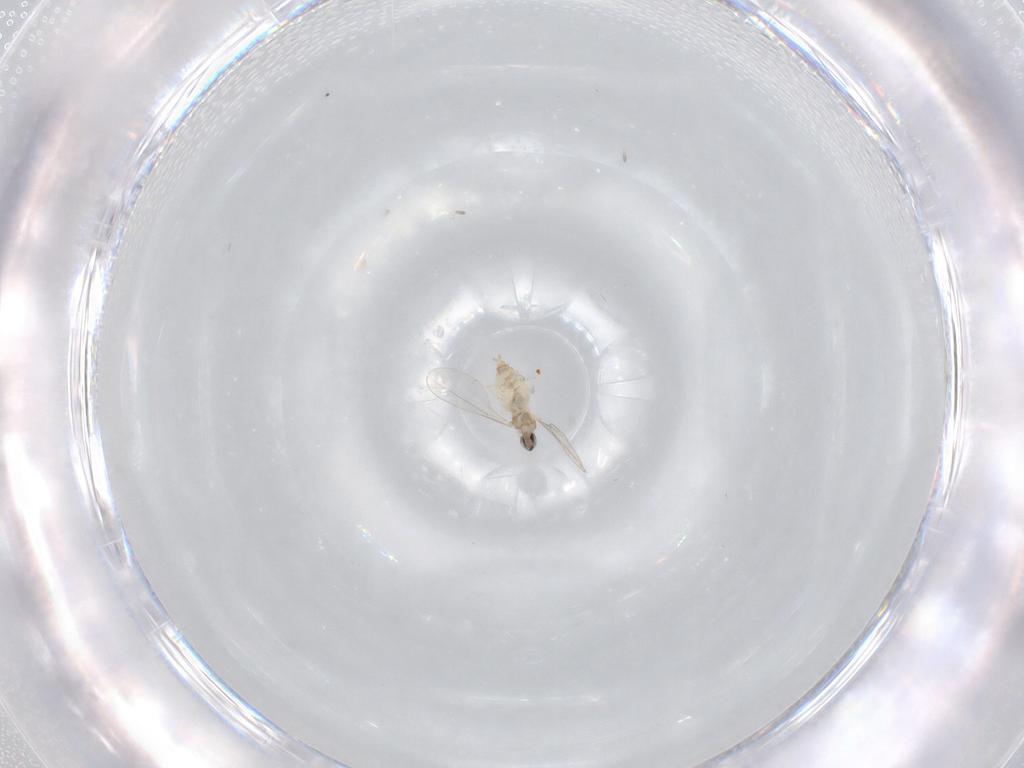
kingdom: Animalia
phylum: Arthropoda
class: Insecta
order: Diptera
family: Cecidomyiidae
